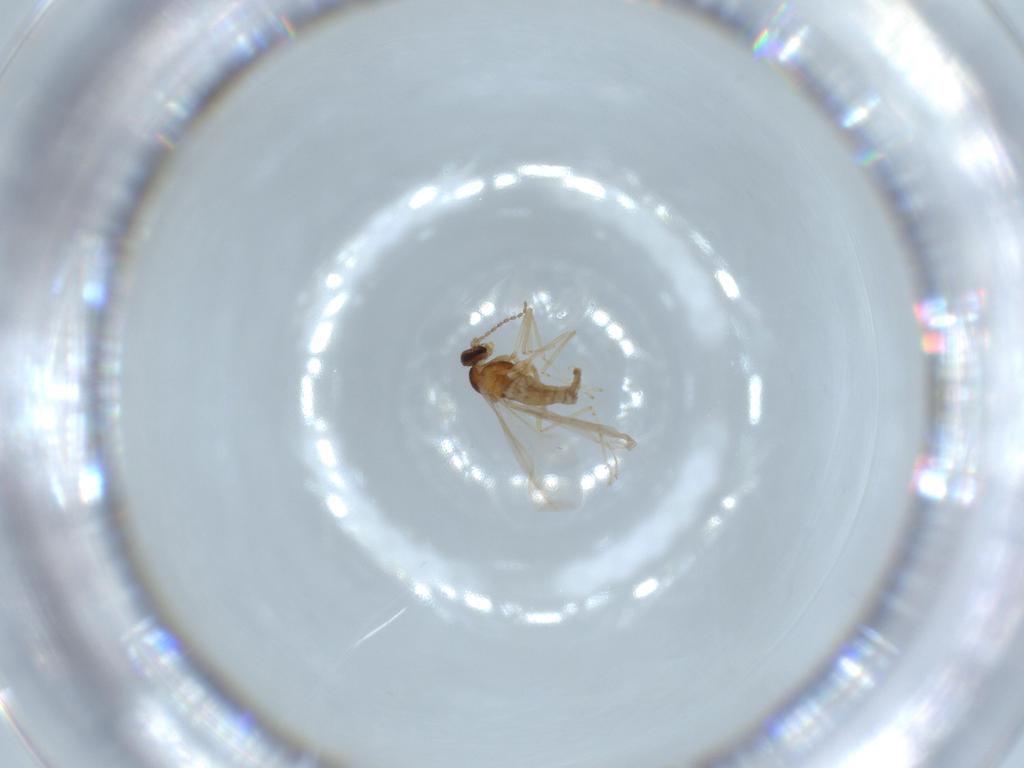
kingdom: Animalia
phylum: Arthropoda
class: Insecta
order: Diptera
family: Cecidomyiidae
